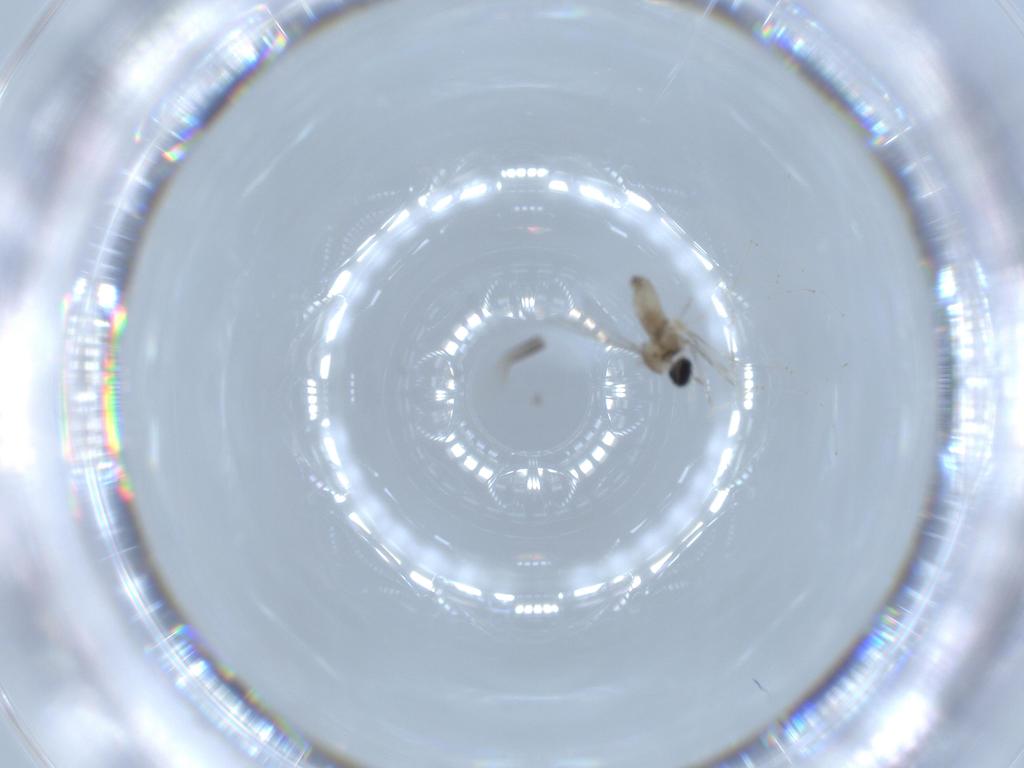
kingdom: Animalia
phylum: Arthropoda
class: Insecta
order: Diptera
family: Cecidomyiidae
